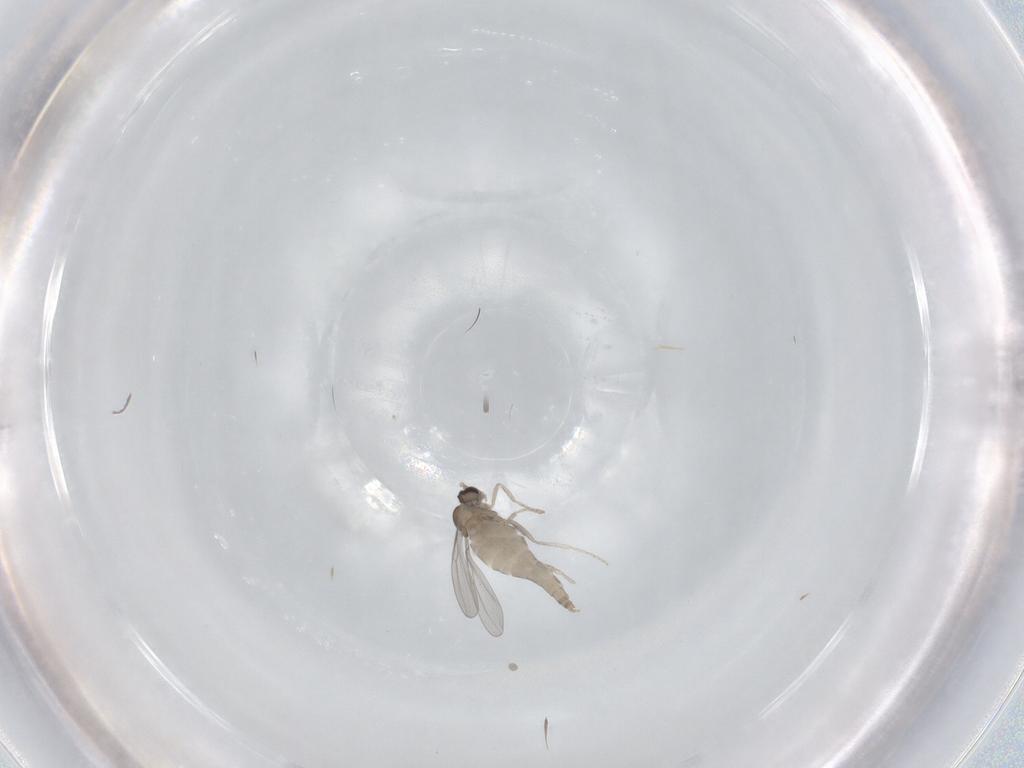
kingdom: Animalia
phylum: Arthropoda
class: Insecta
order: Diptera
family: Cecidomyiidae
